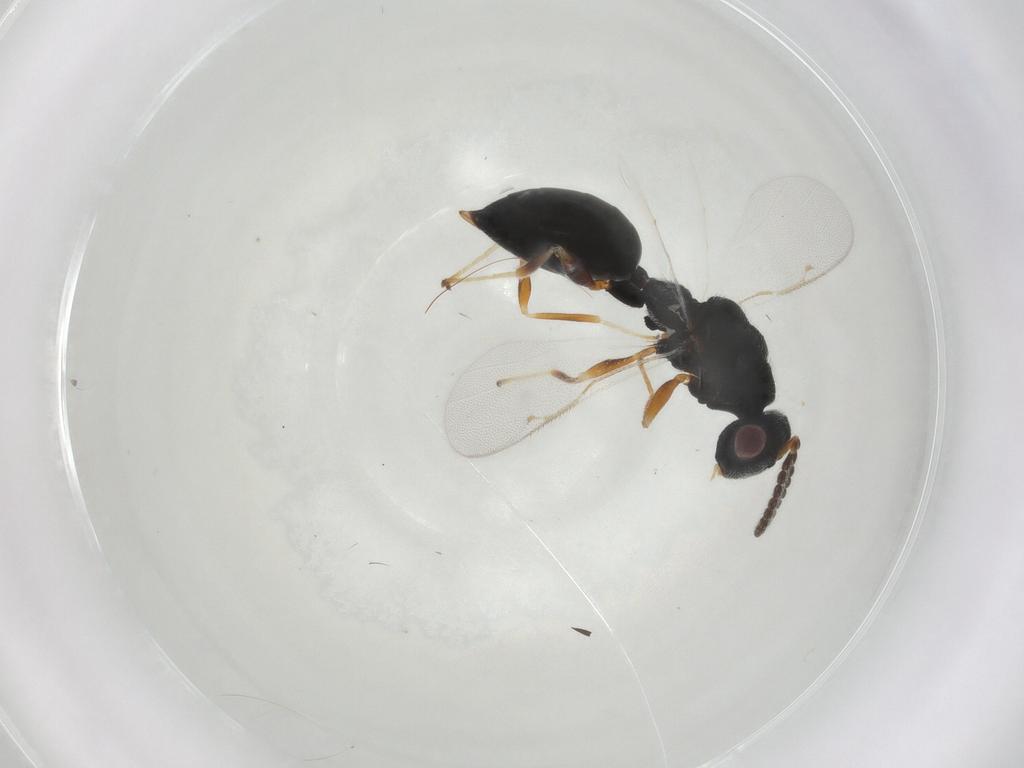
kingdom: Animalia
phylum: Arthropoda
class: Insecta
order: Hymenoptera
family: Eurytomidae
